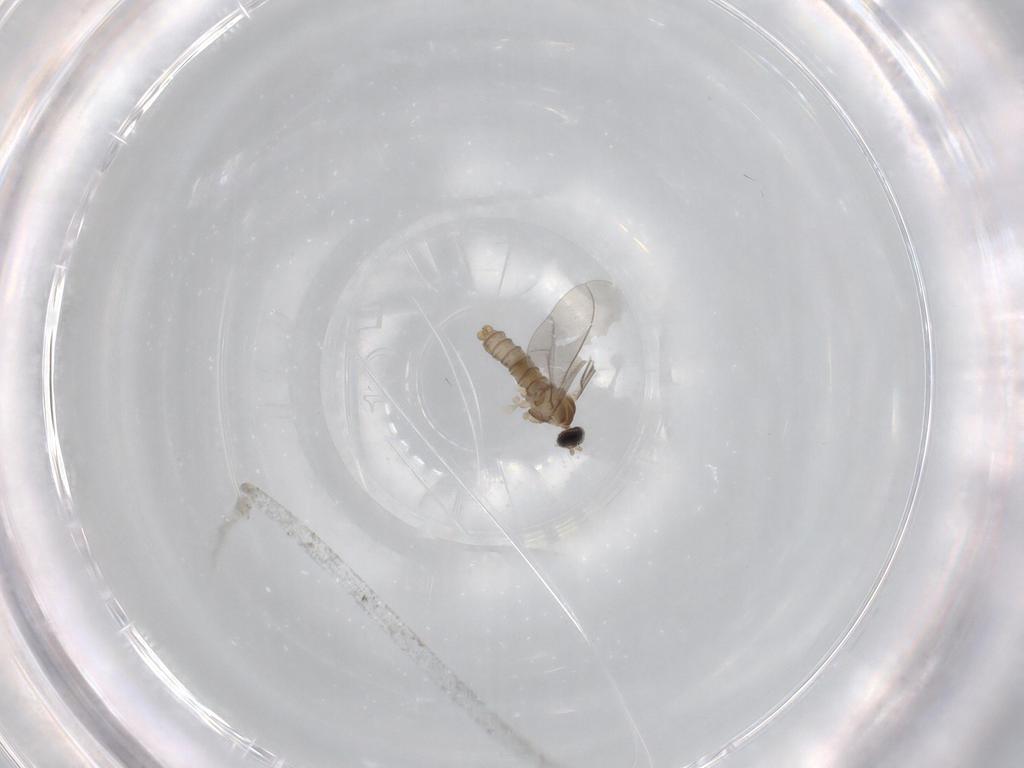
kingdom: Animalia
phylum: Arthropoda
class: Insecta
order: Diptera
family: Cecidomyiidae
